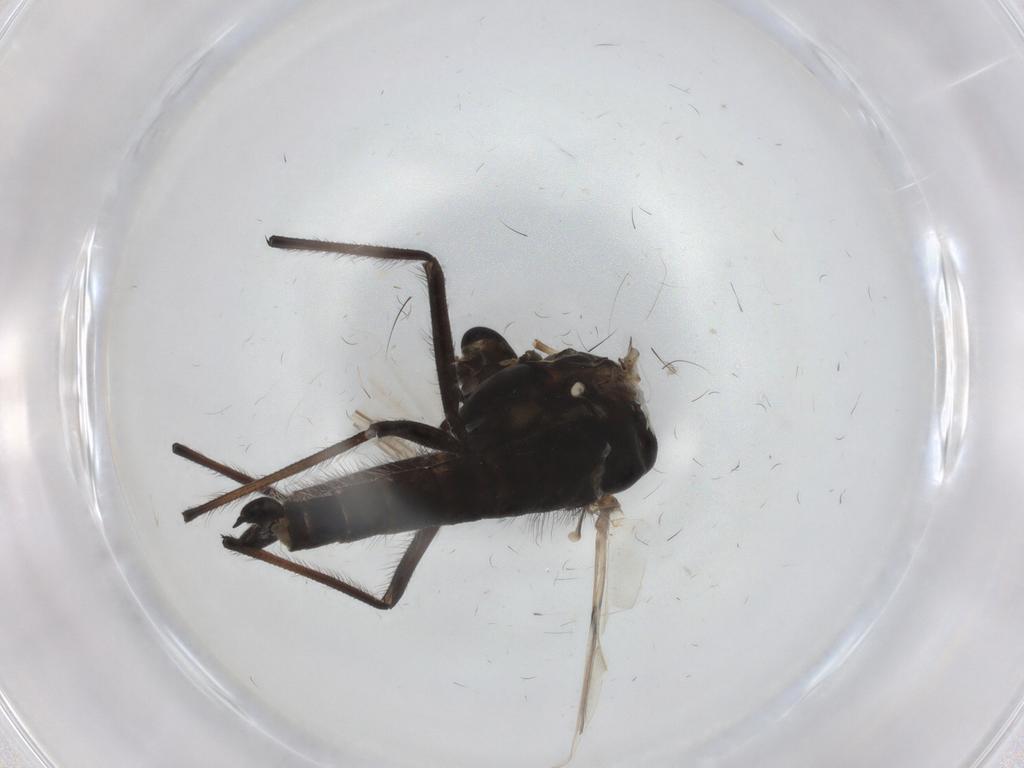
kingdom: Animalia
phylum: Arthropoda
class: Insecta
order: Diptera
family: Chironomidae
